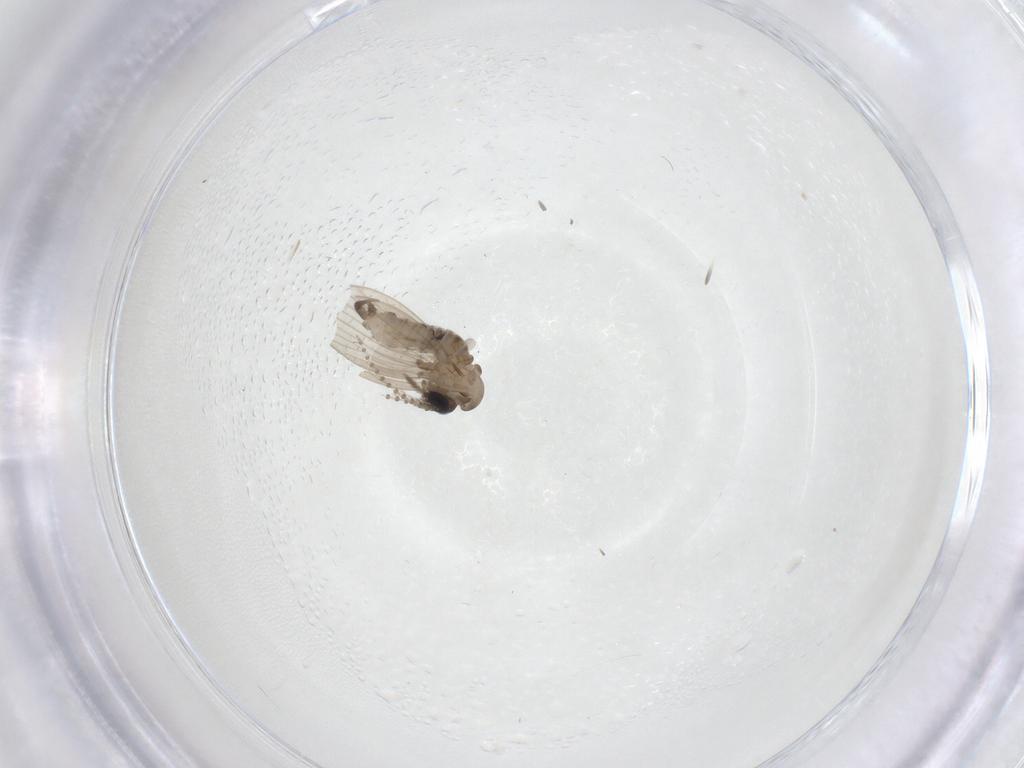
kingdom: Animalia
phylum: Arthropoda
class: Insecta
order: Diptera
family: Psychodidae
